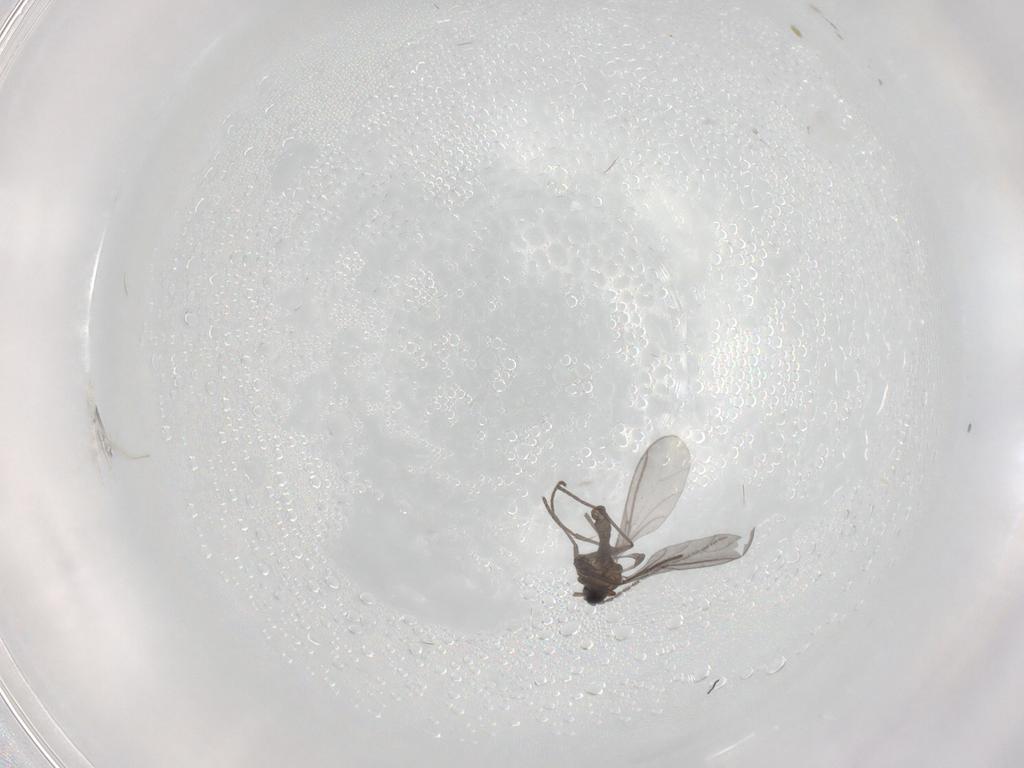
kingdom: Animalia
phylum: Arthropoda
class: Insecta
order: Diptera
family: Sciaridae
